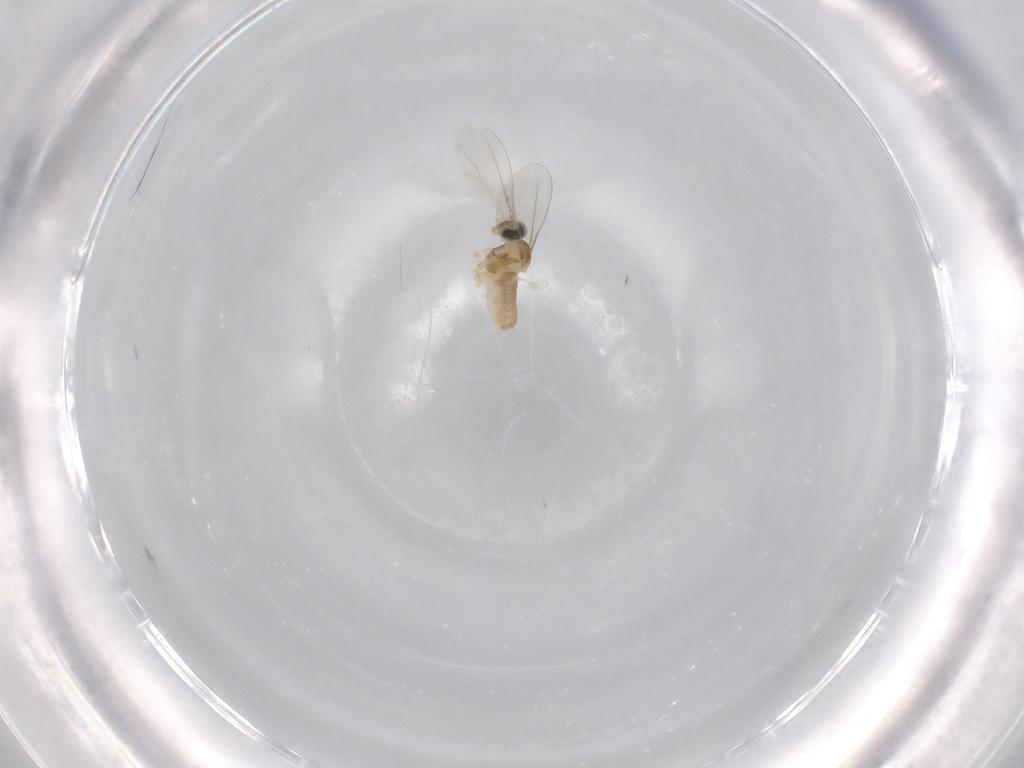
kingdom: Animalia
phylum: Arthropoda
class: Insecta
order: Diptera
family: Cecidomyiidae
